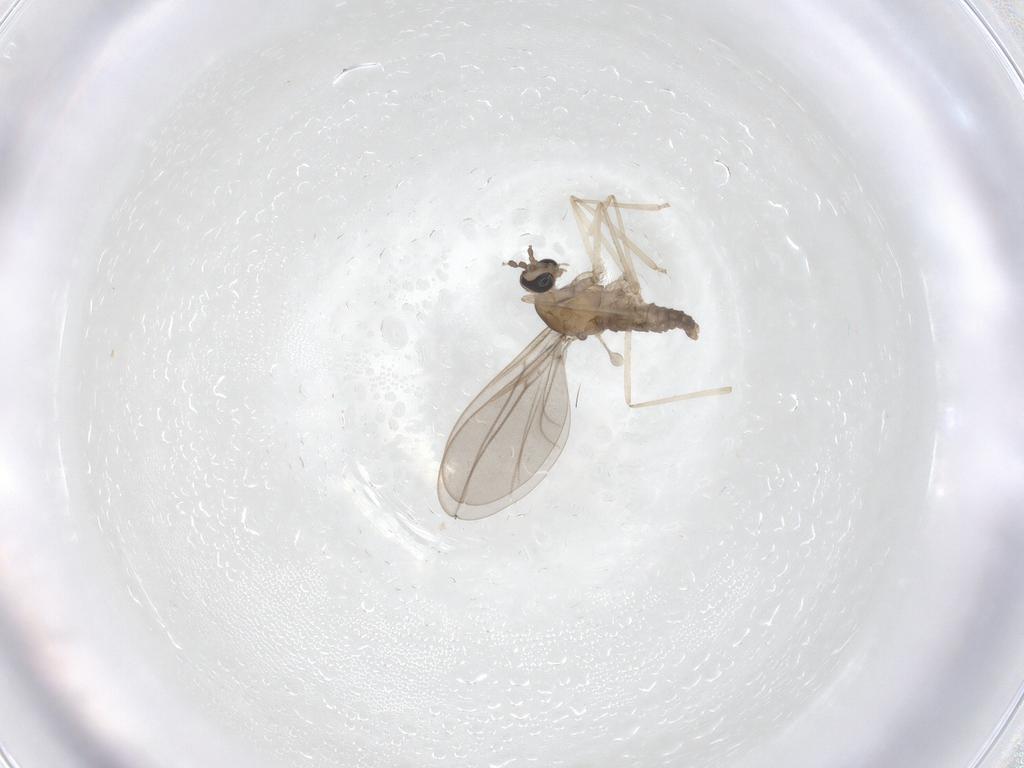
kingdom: Animalia
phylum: Arthropoda
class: Insecta
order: Diptera
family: Cecidomyiidae
